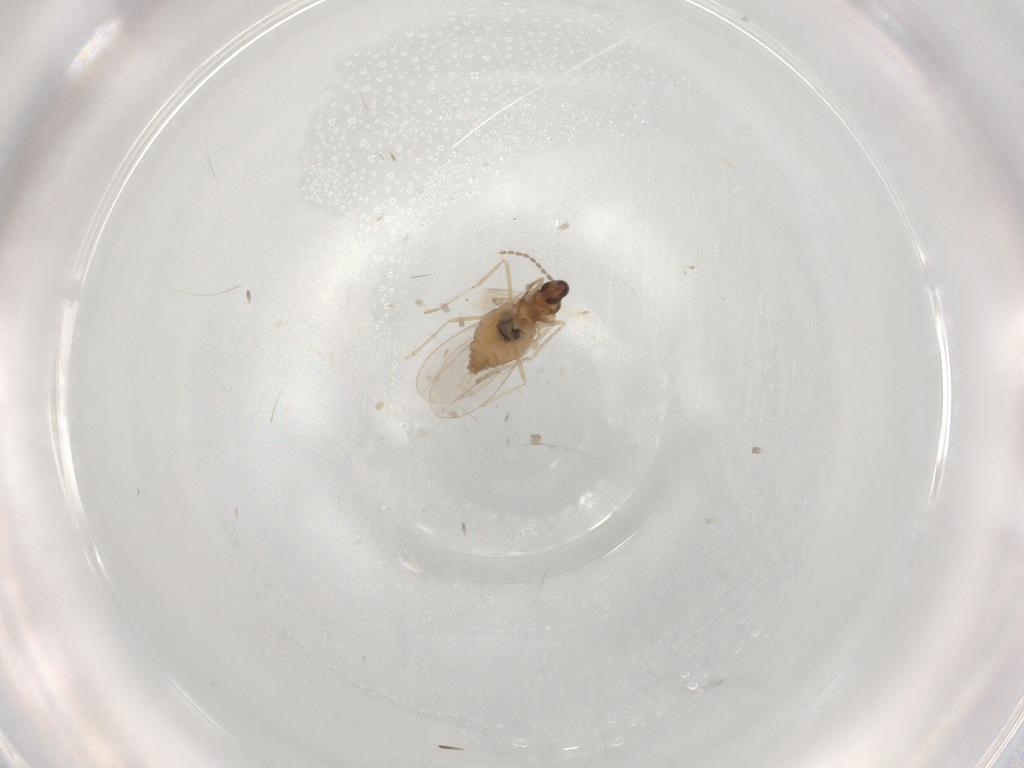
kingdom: Animalia
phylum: Arthropoda
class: Insecta
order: Diptera
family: Cecidomyiidae
